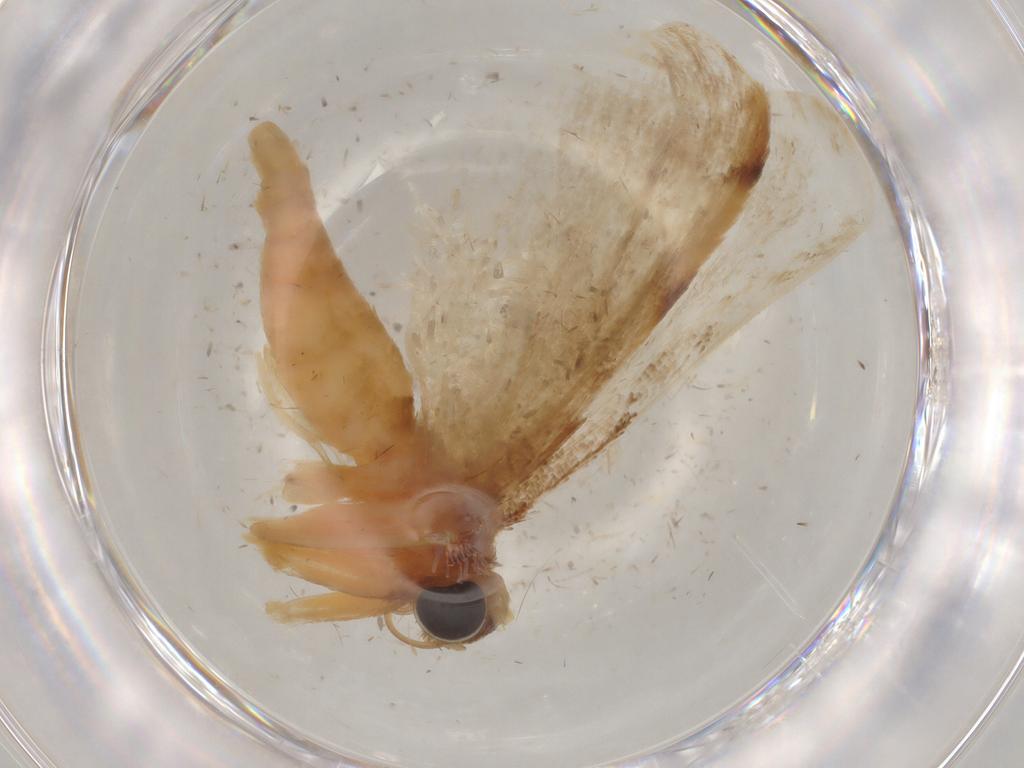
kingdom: Animalia
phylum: Arthropoda
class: Insecta
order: Lepidoptera
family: Geometridae
